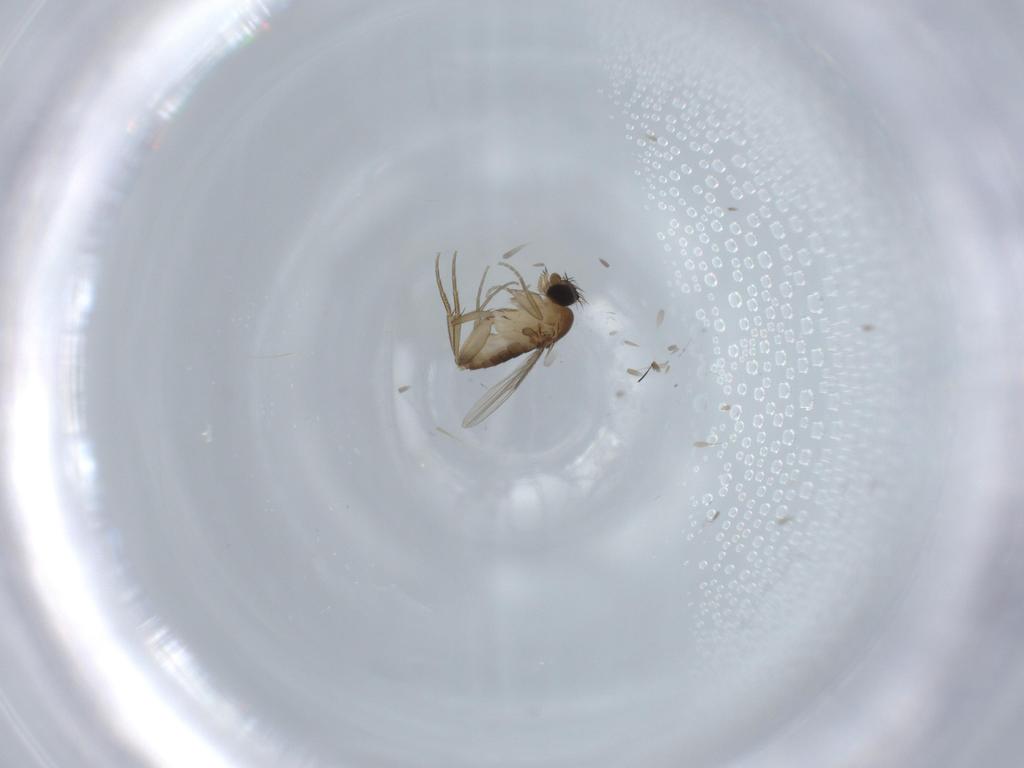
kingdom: Animalia
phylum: Arthropoda
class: Insecta
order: Diptera
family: Phoridae
